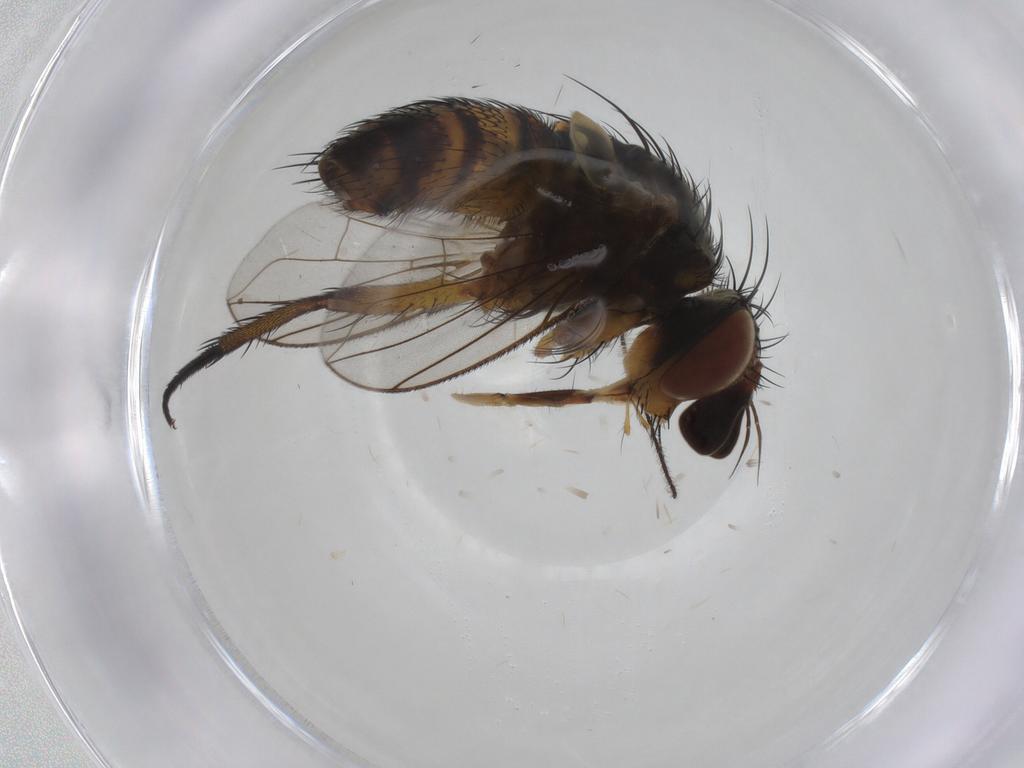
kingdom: Animalia
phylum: Arthropoda
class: Insecta
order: Diptera
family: Tachinidae
